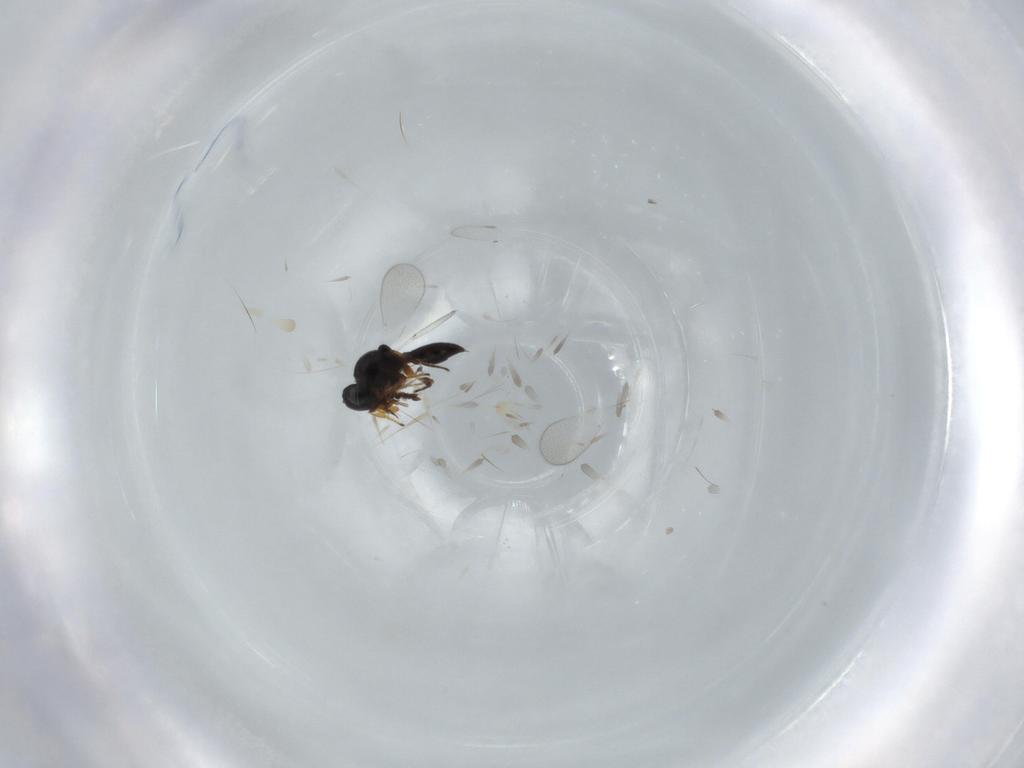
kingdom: Animalia
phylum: Arthropoda
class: Insecta
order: Hymenoptera
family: Platygastridae
